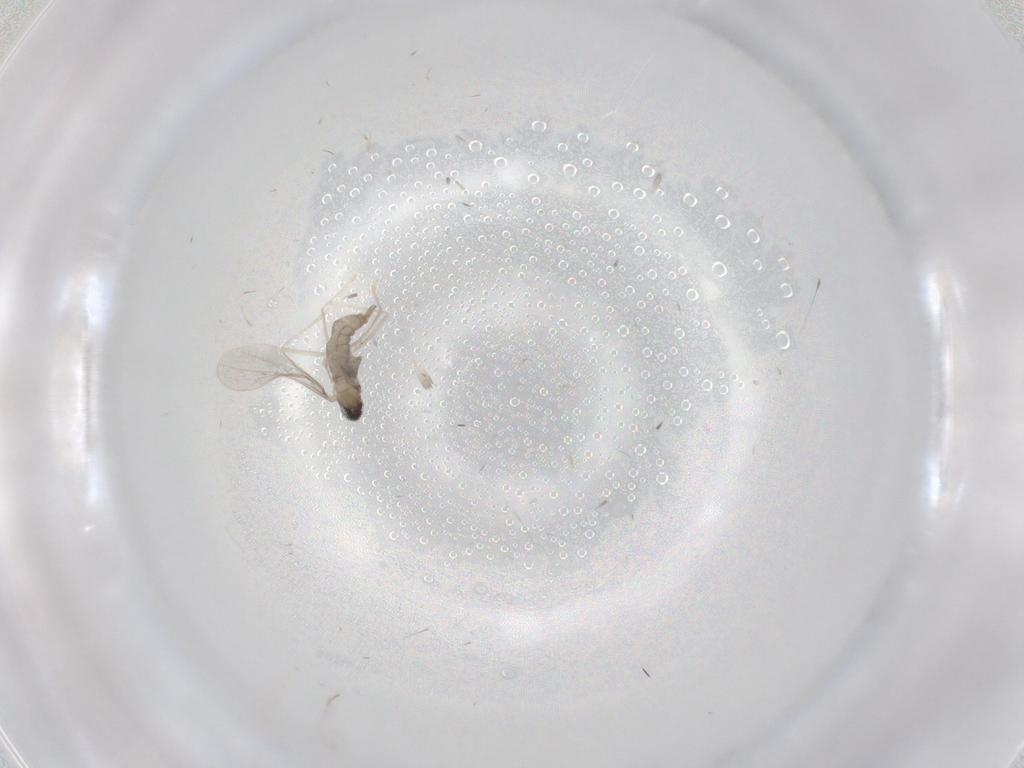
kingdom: Animalia
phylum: Arthropoda
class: Insecta
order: Diptera
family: Cecidomyiidae
